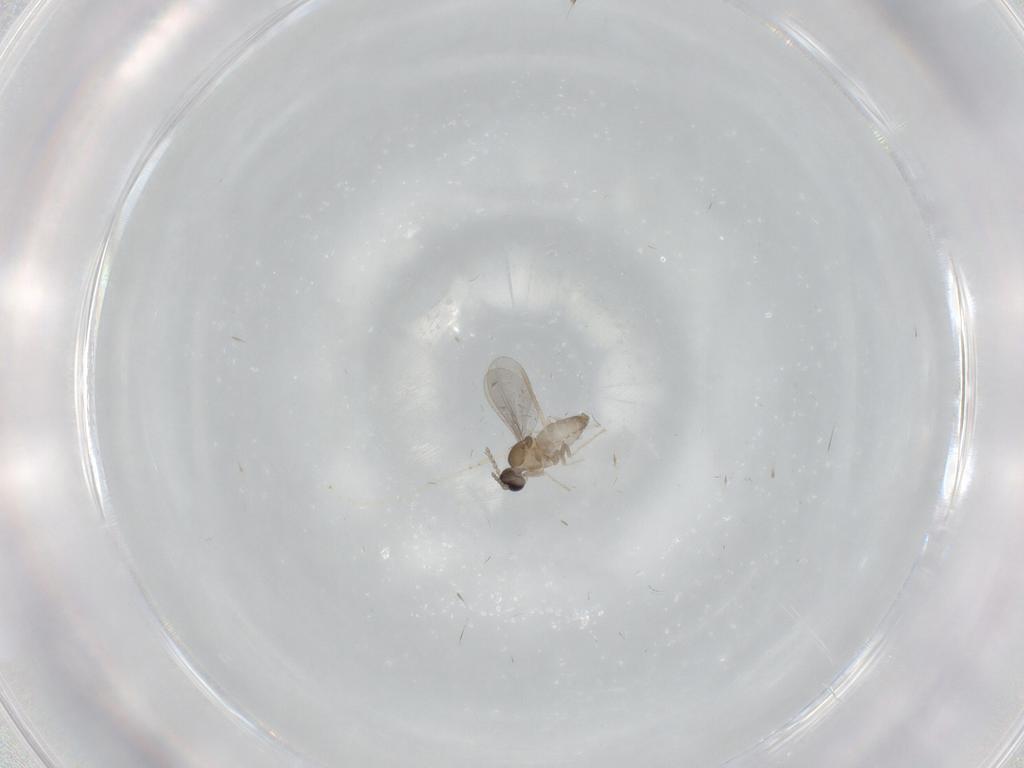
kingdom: Animalia
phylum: Arthropoda
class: Insecta
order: Diptera
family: Cecidomyiidae
